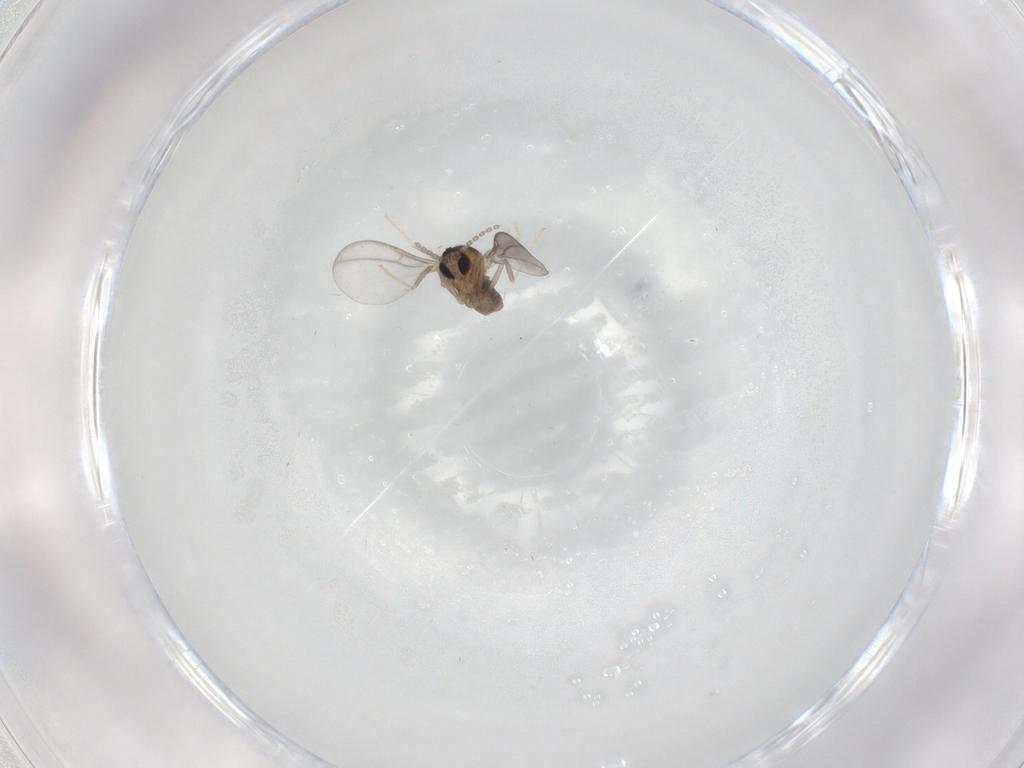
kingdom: Animalia
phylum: Arthropoda
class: Insecta
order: Diptera
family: Cecidomyiidae
